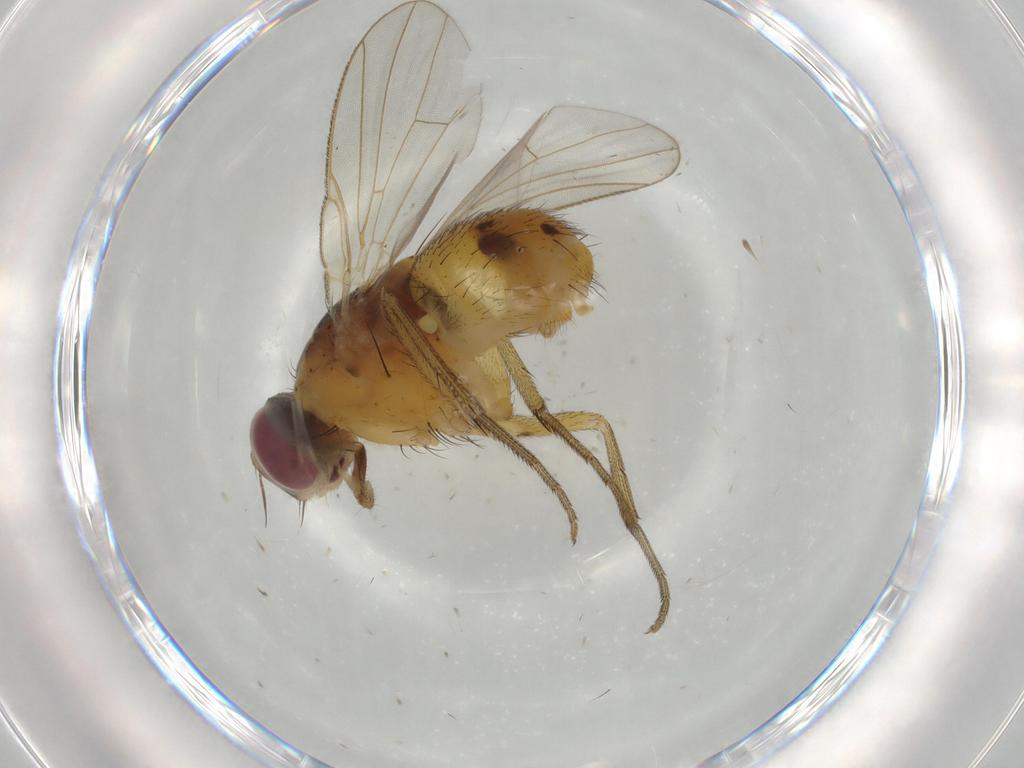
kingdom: Animalia
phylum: Arthropoda
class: Insecta
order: Diptera
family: Muscidae
